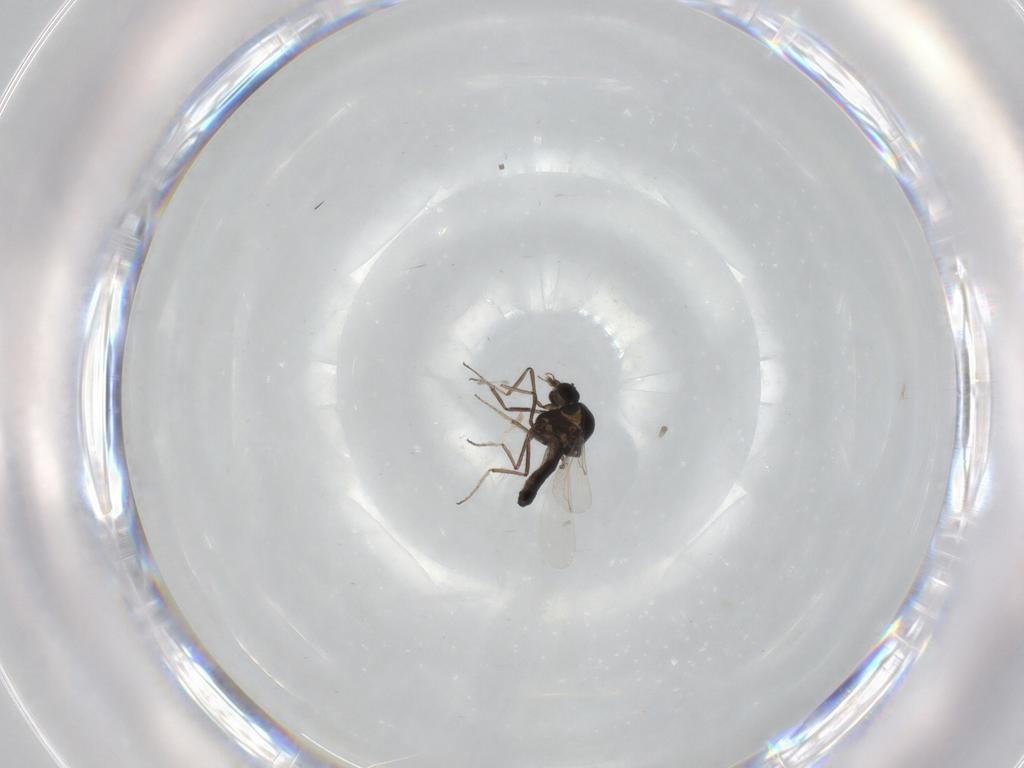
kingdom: Animalia
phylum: Arthropoda
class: Insecta
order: Diptera
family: Ceratopogonidae
